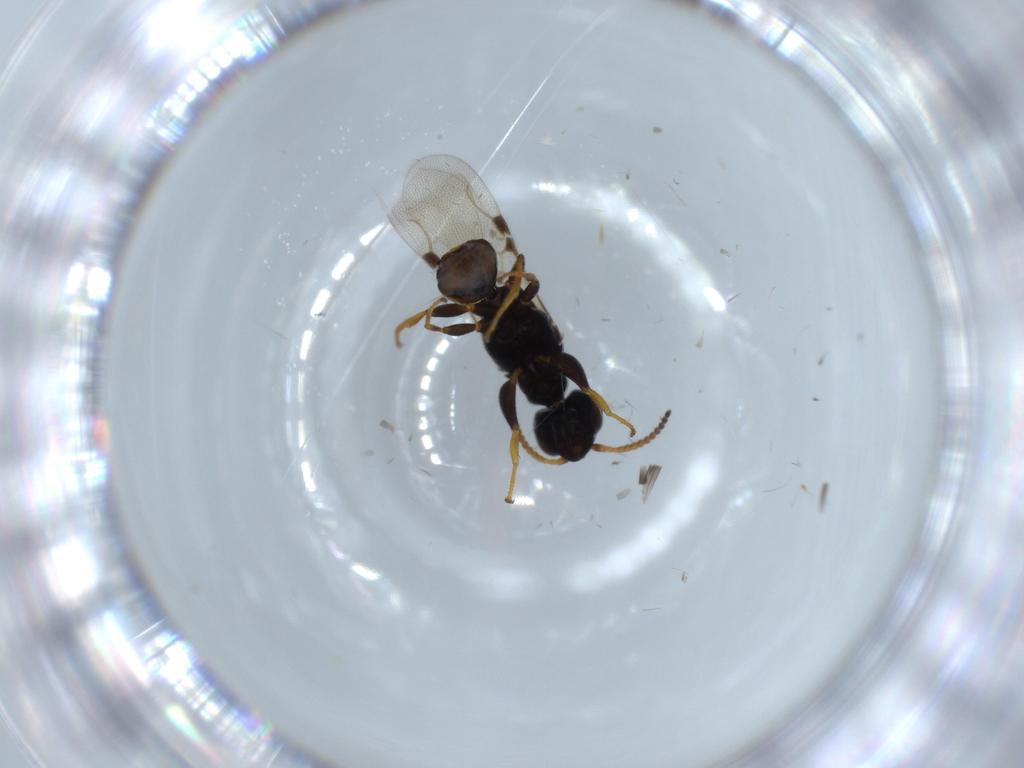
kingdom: Animalia
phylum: Arthropoda
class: Insecta
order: Hymenoptera
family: Bethylidae
